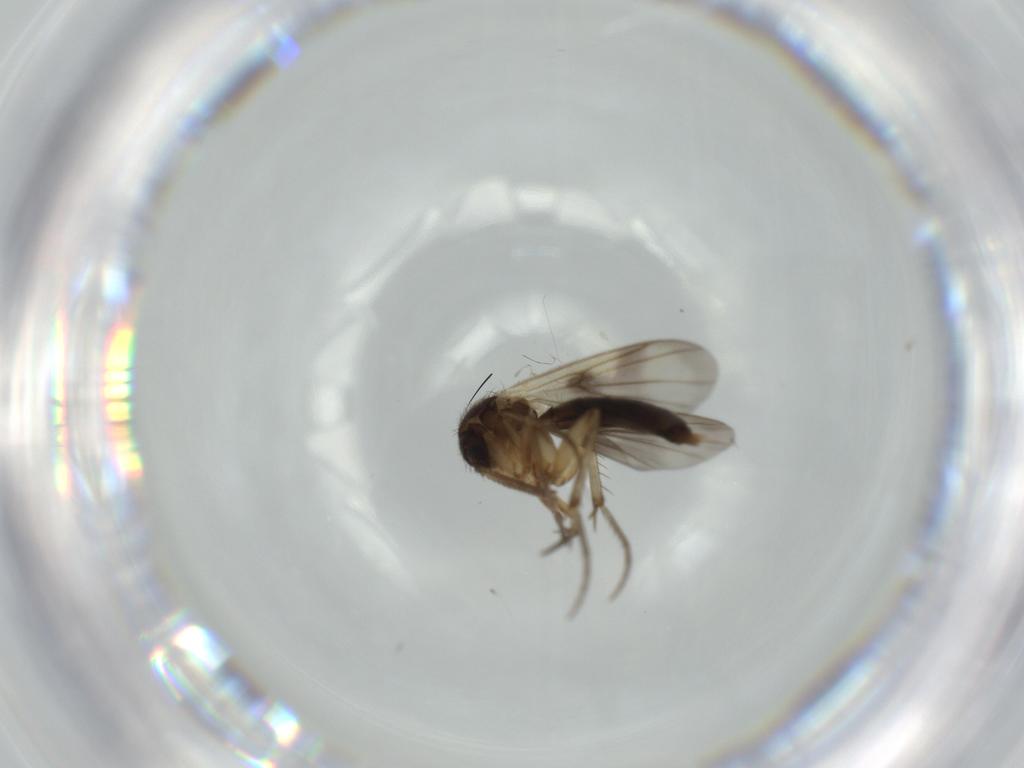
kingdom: Animalia
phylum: Arthropoda
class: Insecta
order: Diptera
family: Mycetophilidae
